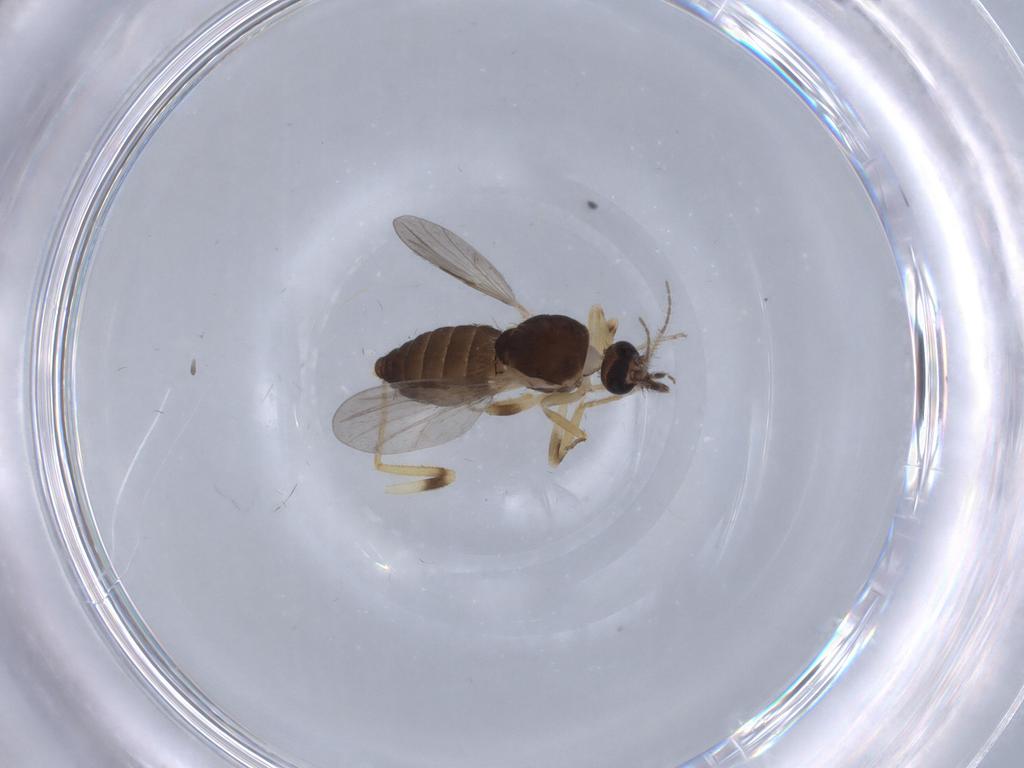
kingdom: Animalia
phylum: Arthropoda
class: Insecta
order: Diptera
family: Ceratopogonidae
